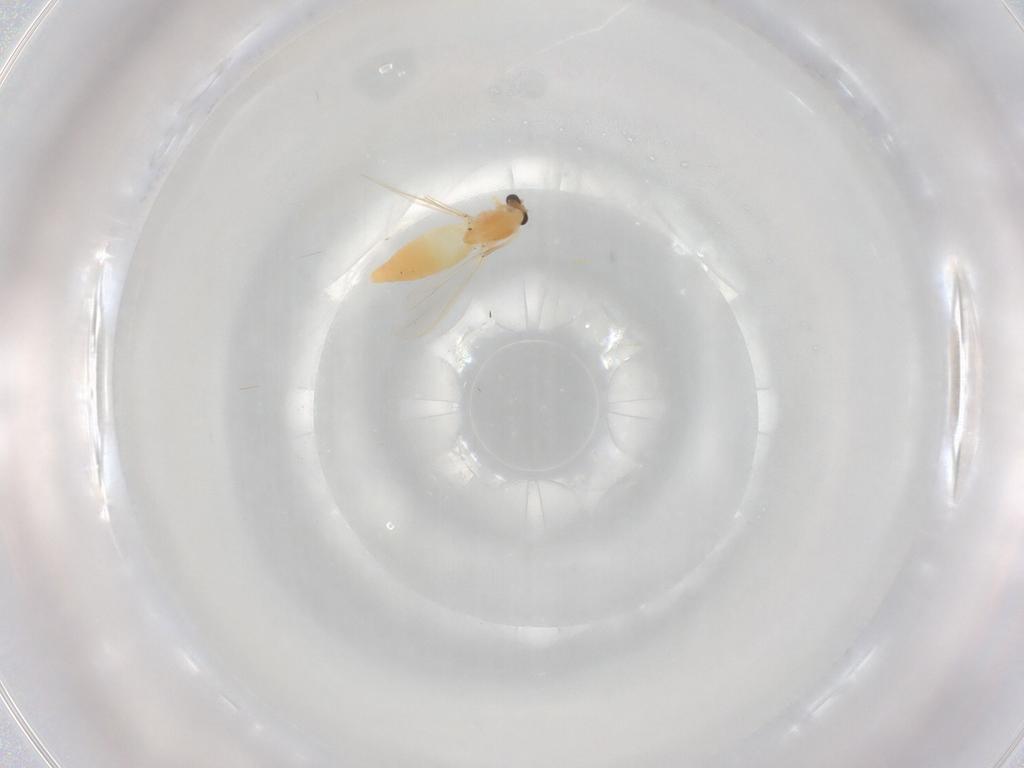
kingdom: Animalia
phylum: Arthropoda
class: Insecta
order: Diptera
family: Chironomidae
